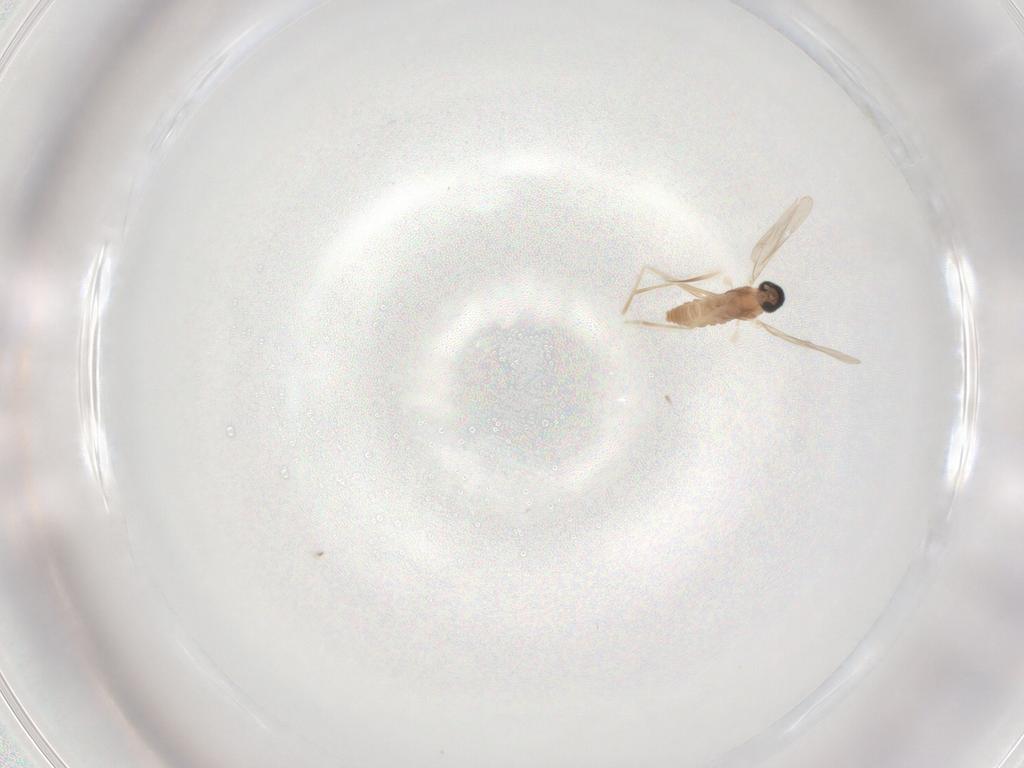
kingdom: Animalia
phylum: Arthropoda
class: Insecta
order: Diptera
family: Cecidomyiidae
